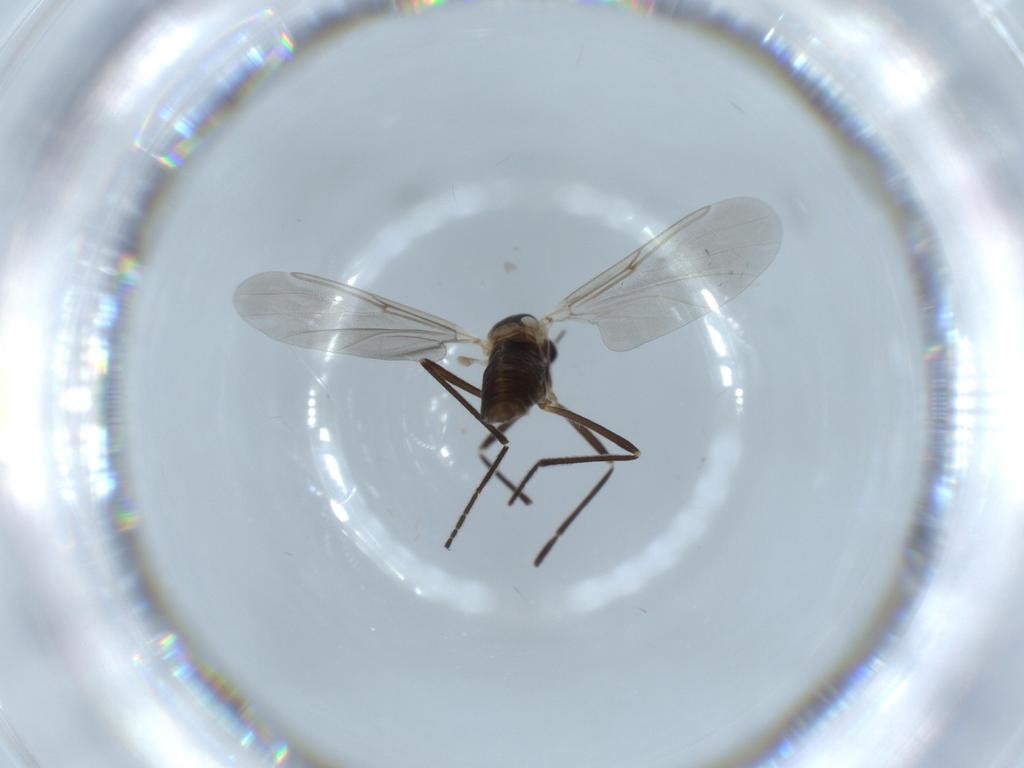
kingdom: Animalia
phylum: Arthropoda
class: Insecta
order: Diptera
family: Cecidomyiidae
